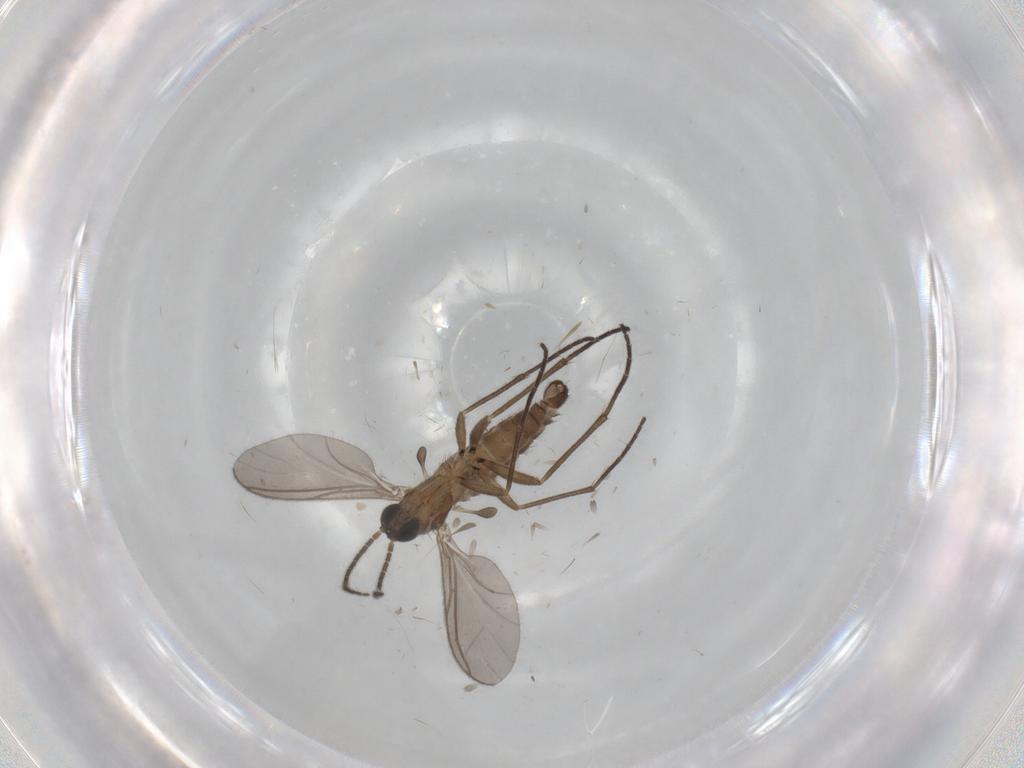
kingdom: Animalia
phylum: Arthropoda
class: Insecta
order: Diptera
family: Sciaridae
